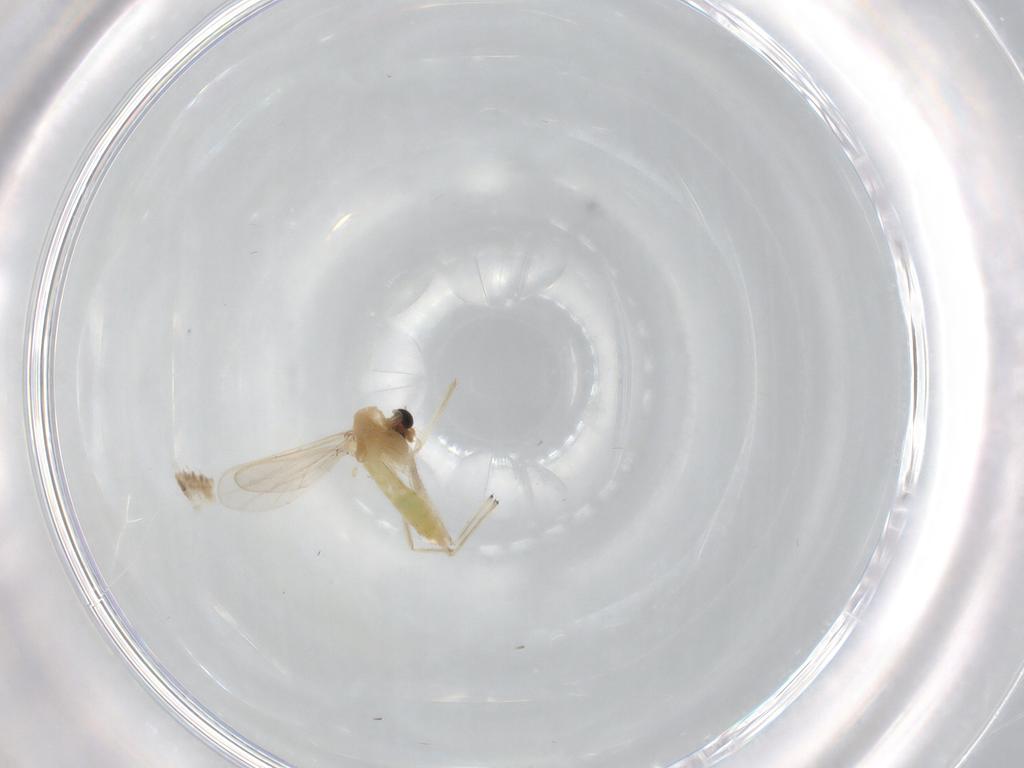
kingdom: Animalia
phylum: Arthropoda
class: Insecta
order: Diptera
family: Chironomidae
